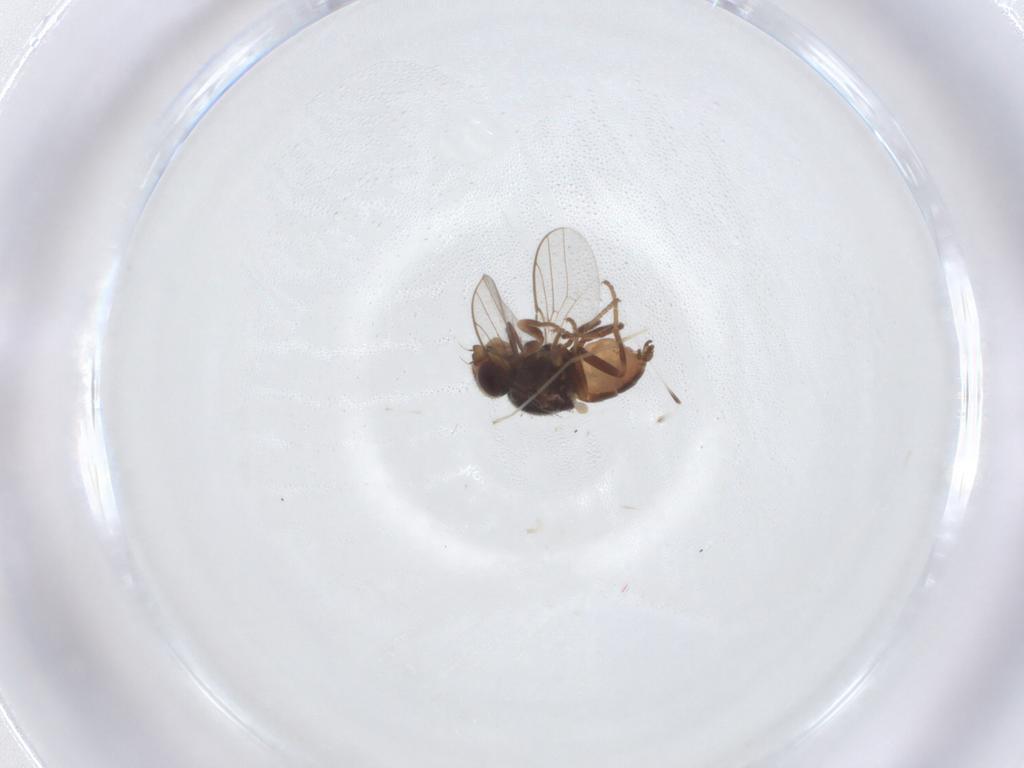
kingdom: Animalia
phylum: Arthropoda
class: Insecta
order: Diptera
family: Chloropidae
